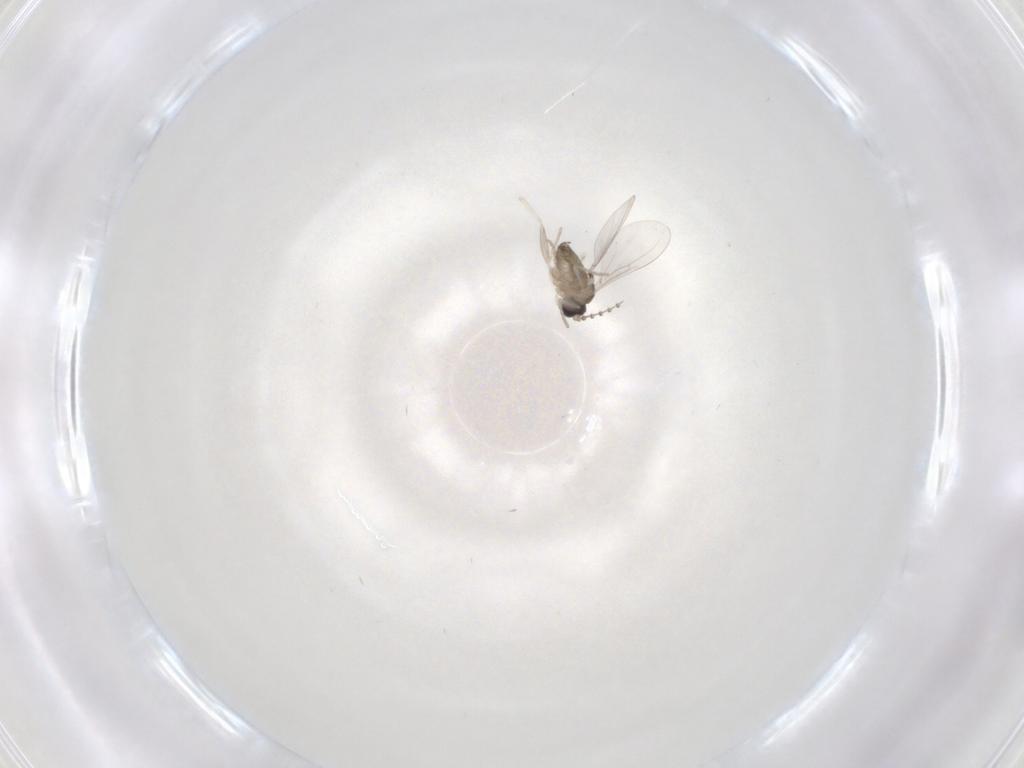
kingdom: Animalia
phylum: Arthropoda
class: Insecta
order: Diptera
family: Cecidomyiidae
